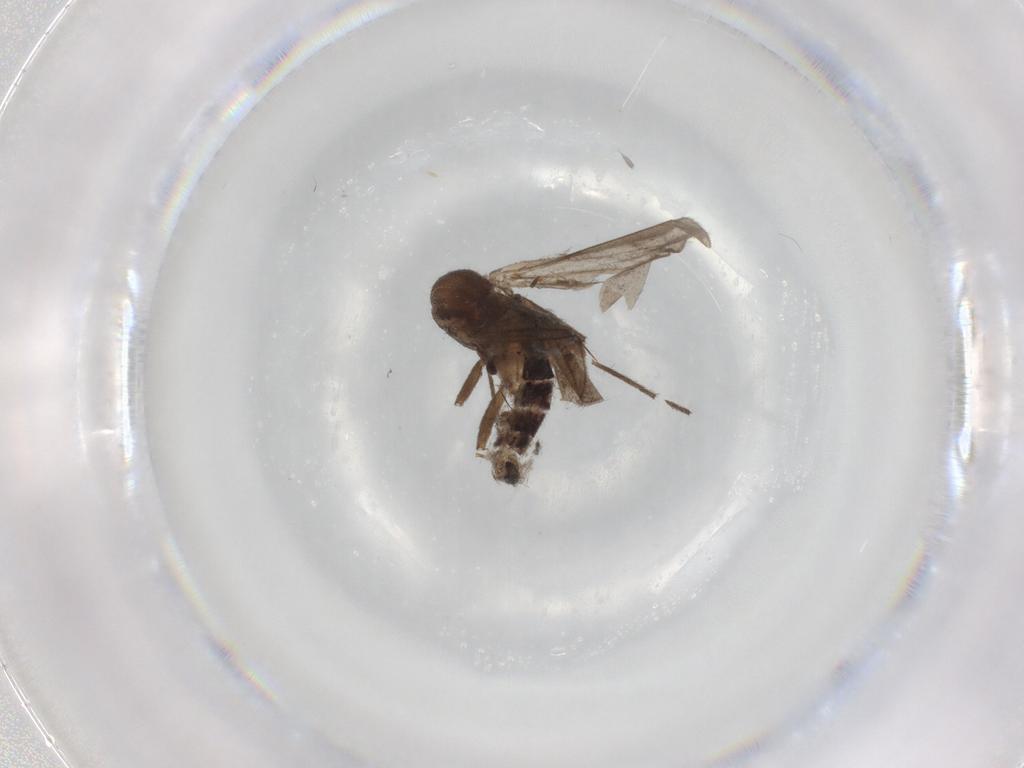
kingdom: Animalia
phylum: Arthropoda
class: Insecta
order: Diptera
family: Mycetophilidae
